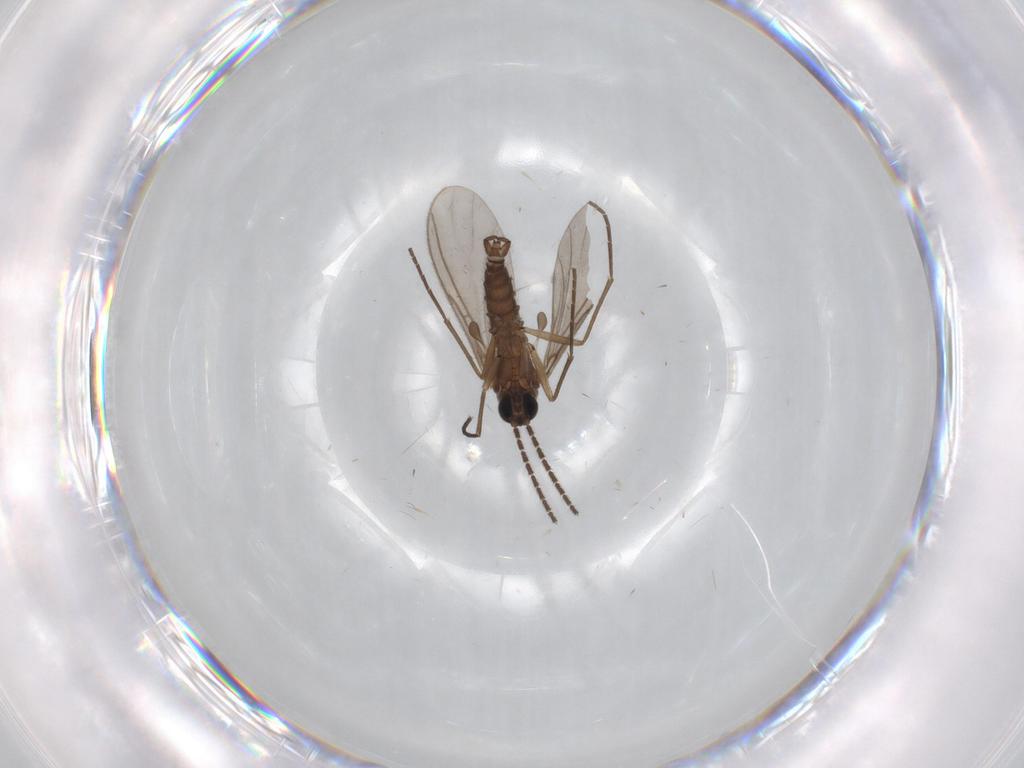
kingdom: Animalia
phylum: Arthropoda
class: Insecta
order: Diptera
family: Sciaridae
